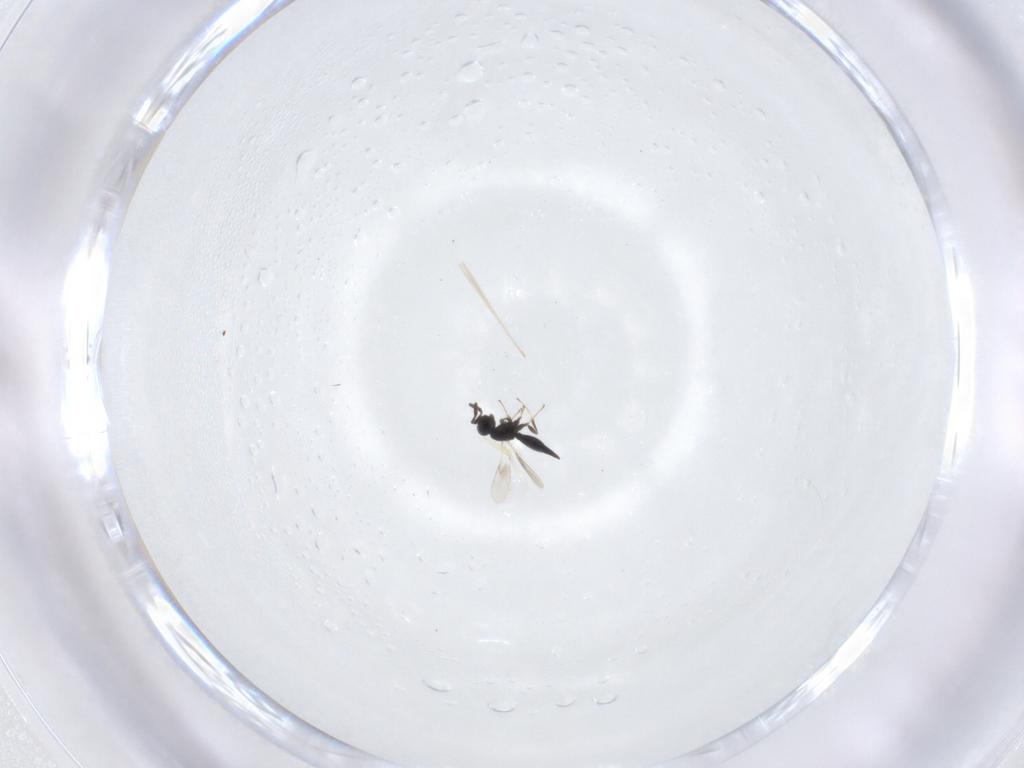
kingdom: Animalia
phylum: Arthropoda
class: Insecta
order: Hymenoptera
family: Scelionidae
